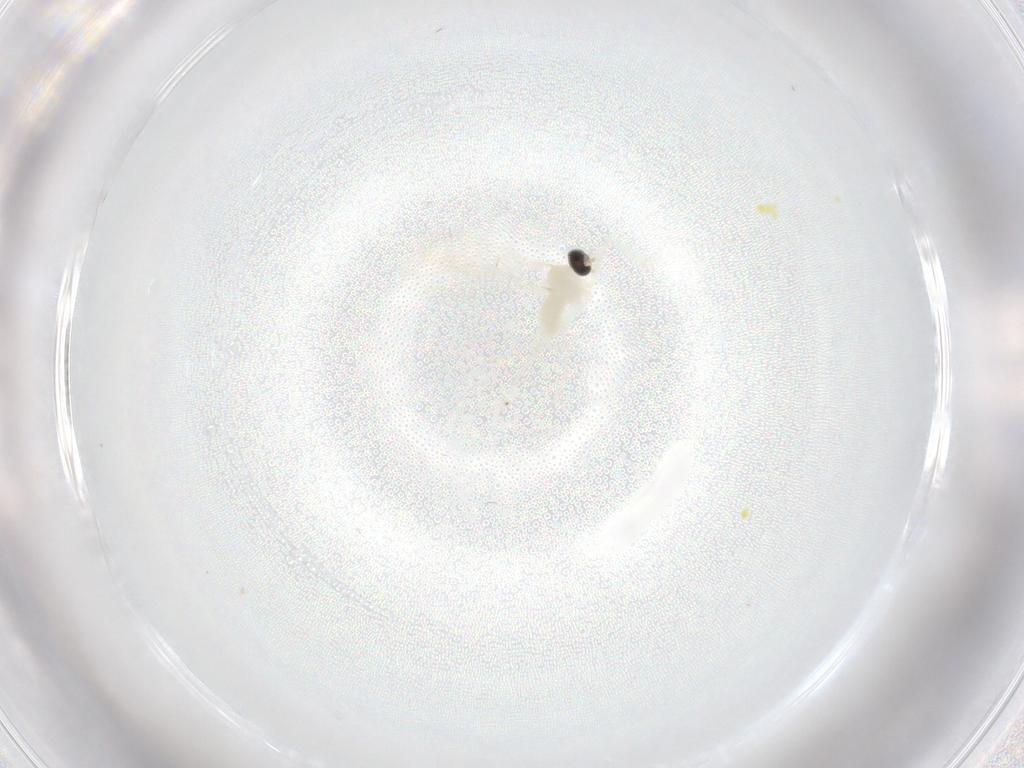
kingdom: Animalia
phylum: Arthropoda
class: Insecta
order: Diptera
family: Cecidomyiidae
